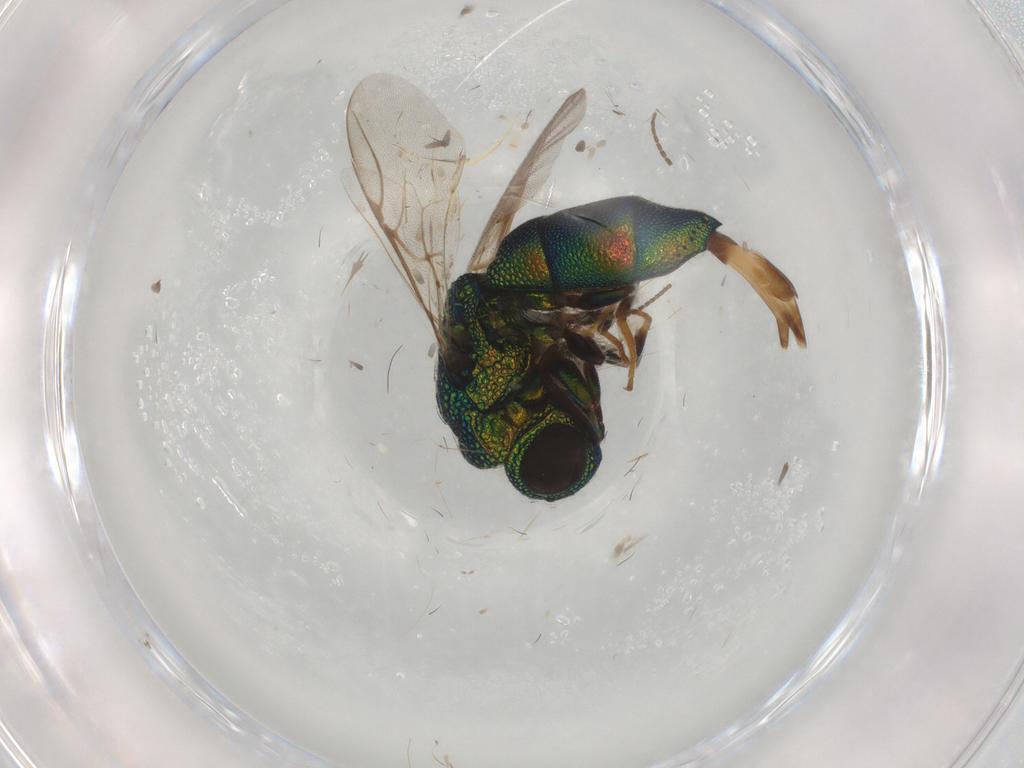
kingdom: Animalia
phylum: Arthropoda
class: Insecta
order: Hymenoptera
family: Chrysididae
